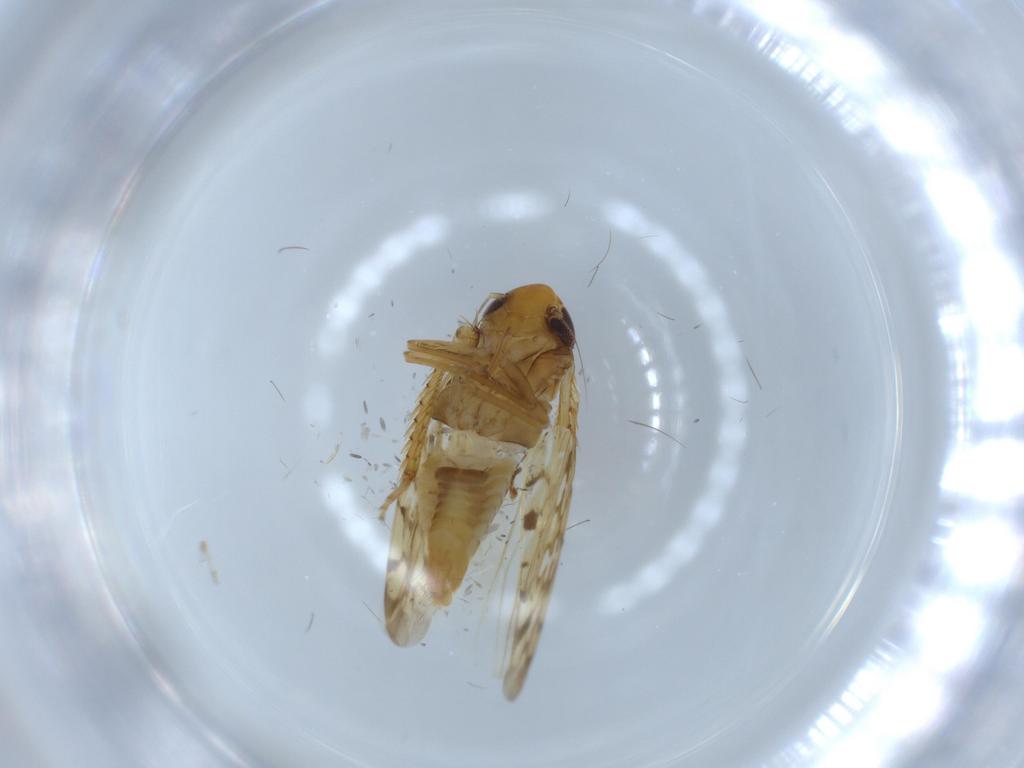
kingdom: Animalia
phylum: Arthropoda
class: Insecta
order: Hemiptera
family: Cicadellidae
